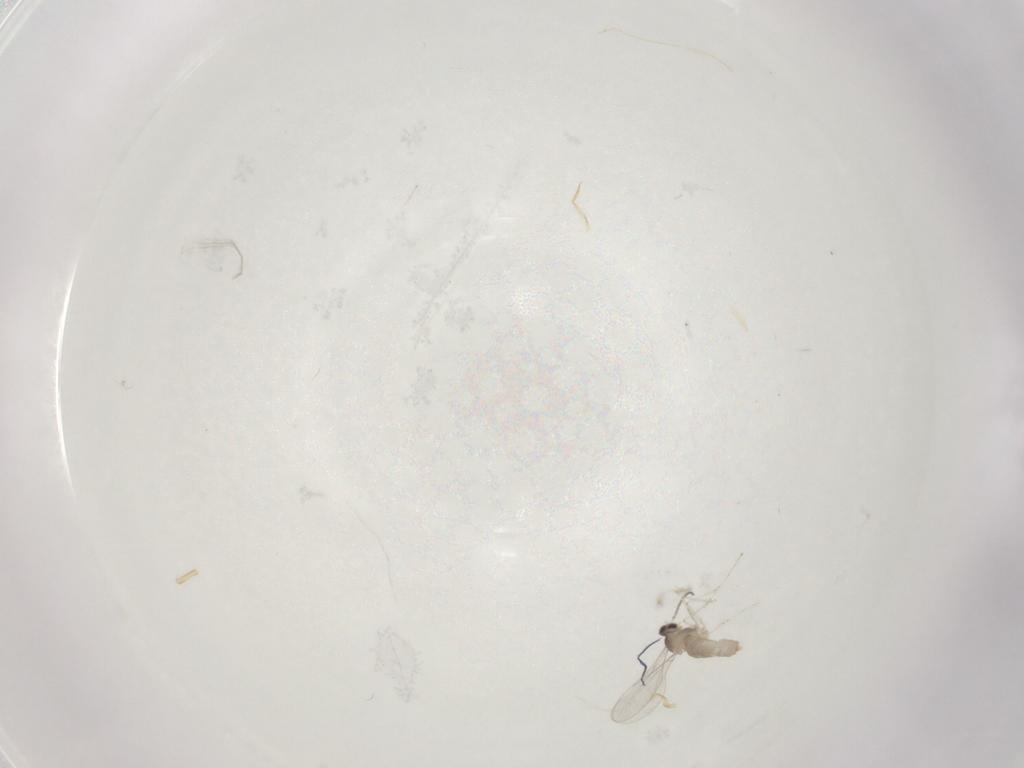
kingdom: Animalia
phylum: Arthropoda
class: Insecta
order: Diptera
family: Cecidomyiidae
